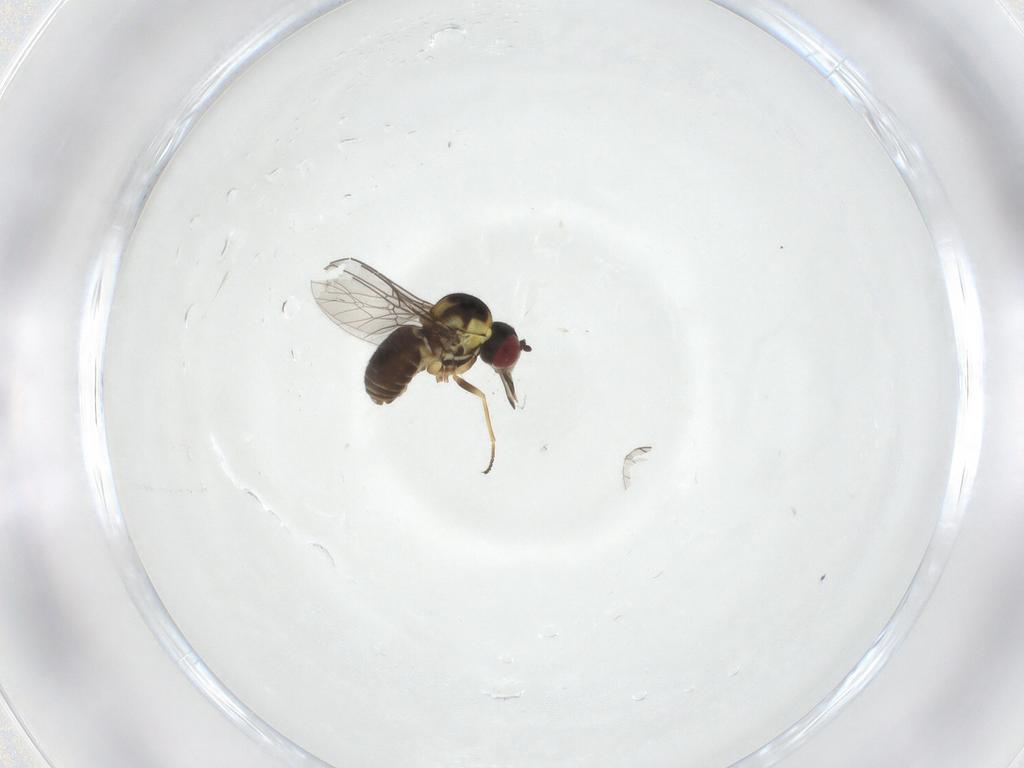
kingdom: Animalia
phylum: Arthropoda
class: Insecta
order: Diptera
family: Bombyliidae
